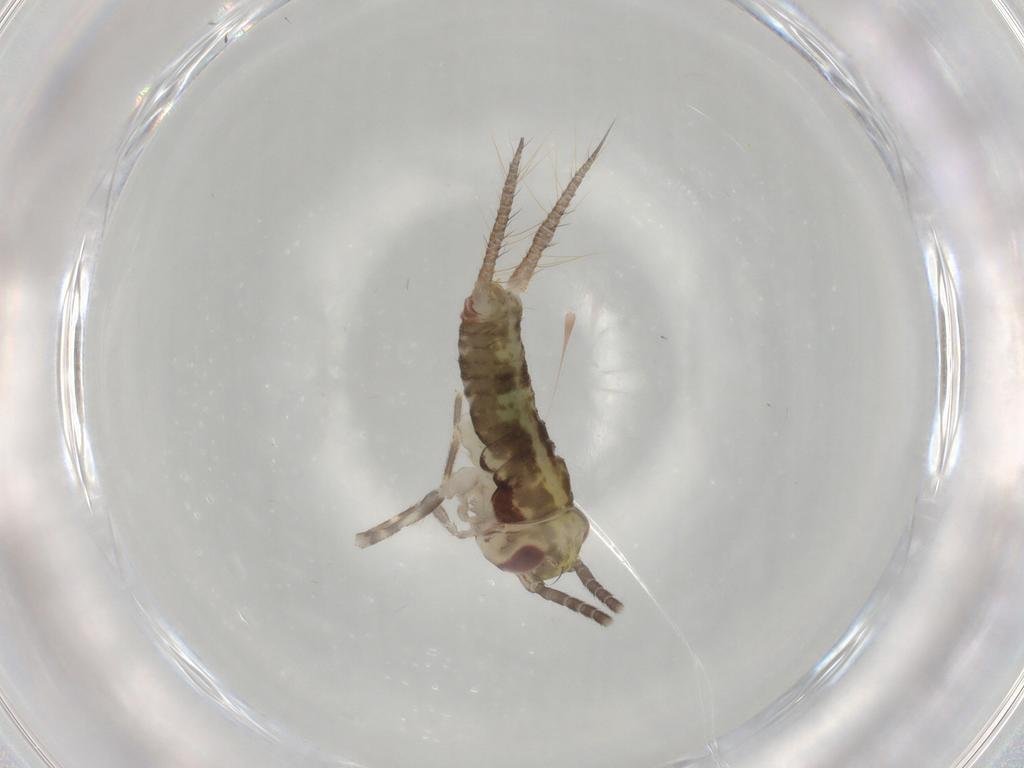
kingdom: Animalia
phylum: Arthropoda
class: Insecta
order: Orthoptera
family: Gryllidae
